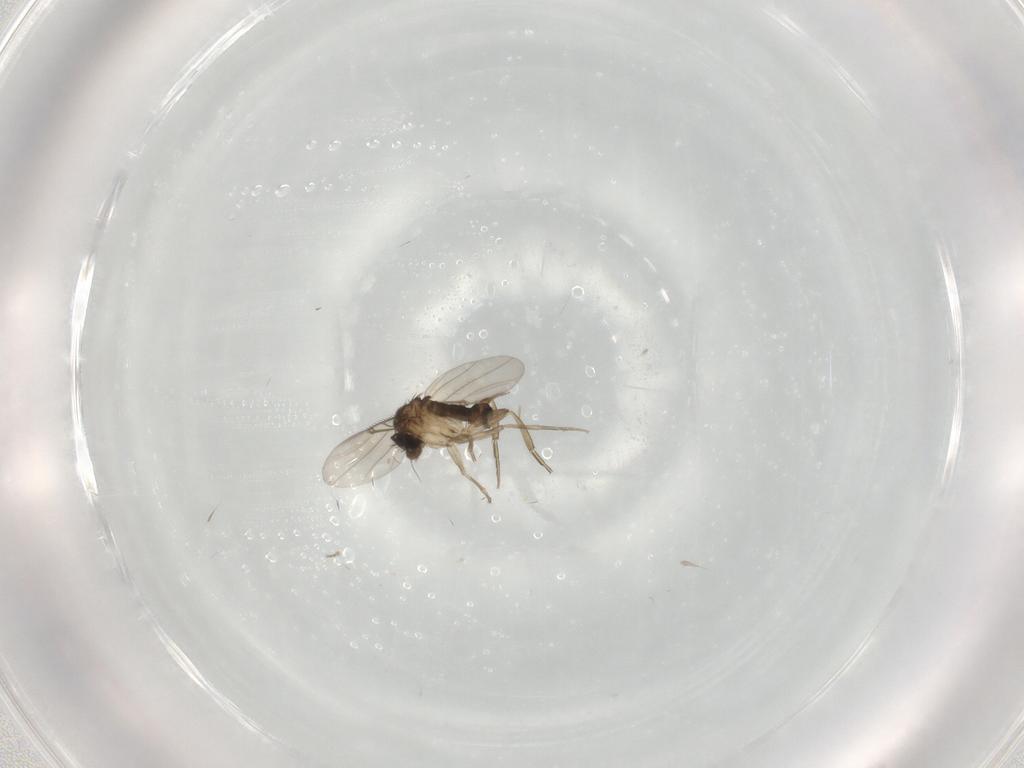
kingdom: Animalia
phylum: Arthropoda
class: Insecta
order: Diptera
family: Phoridae
